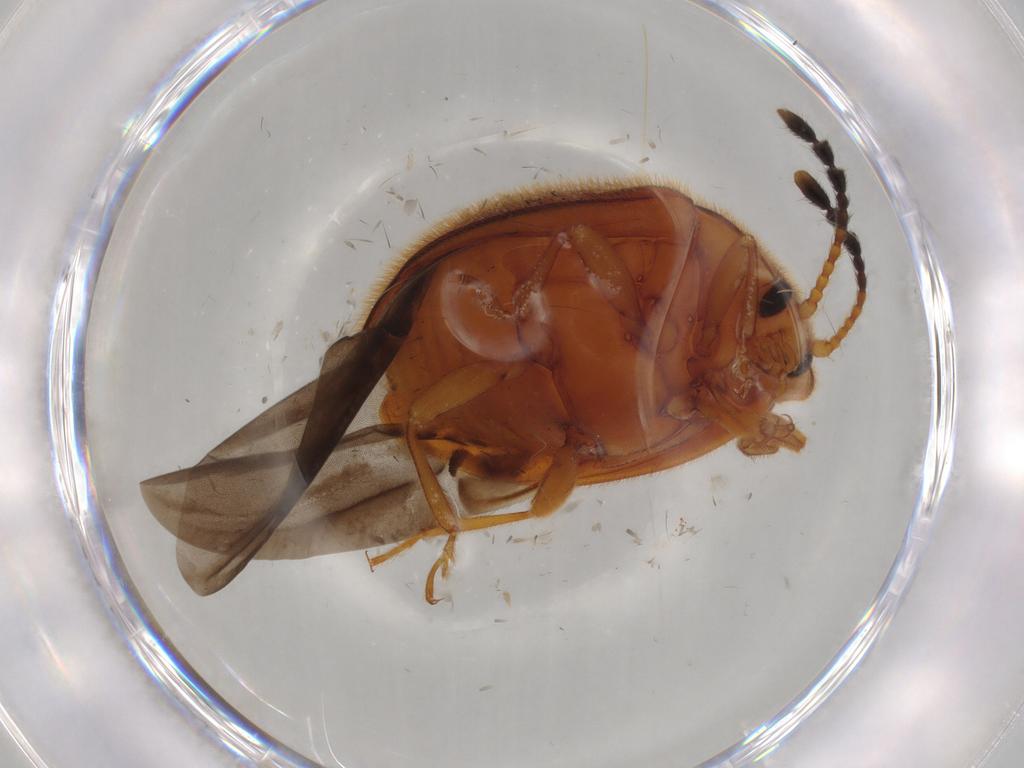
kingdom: Animalia
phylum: Arthropoda
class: Insecta
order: Coleoptera
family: Endomychidae
